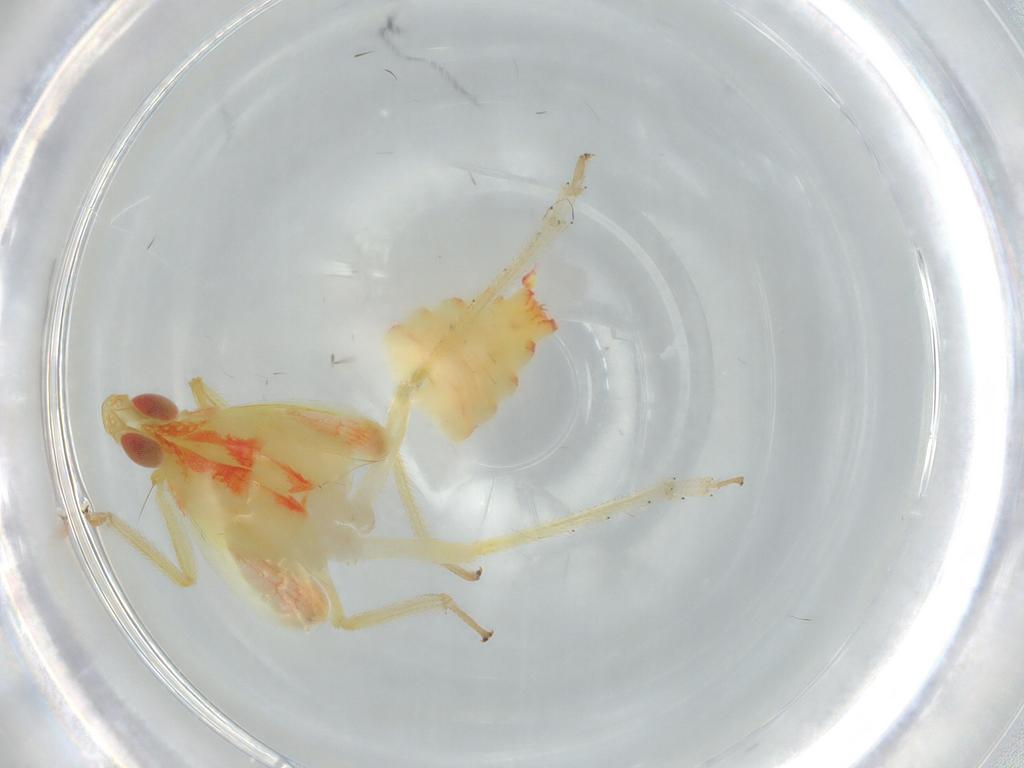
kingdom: Animalia
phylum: Arthropoda
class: Insecta
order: Hemiptera
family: Tropiduchidae
